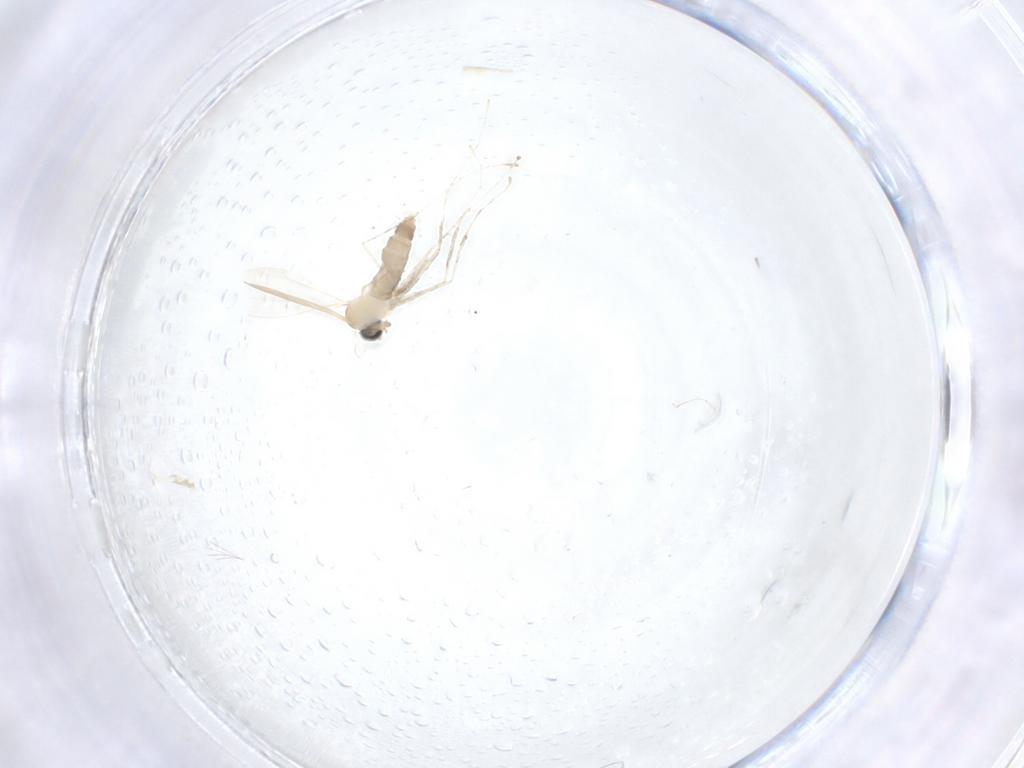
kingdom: Animalia
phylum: Arthropoda
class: Insecta
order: Diptera
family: Cecidomyiidae
